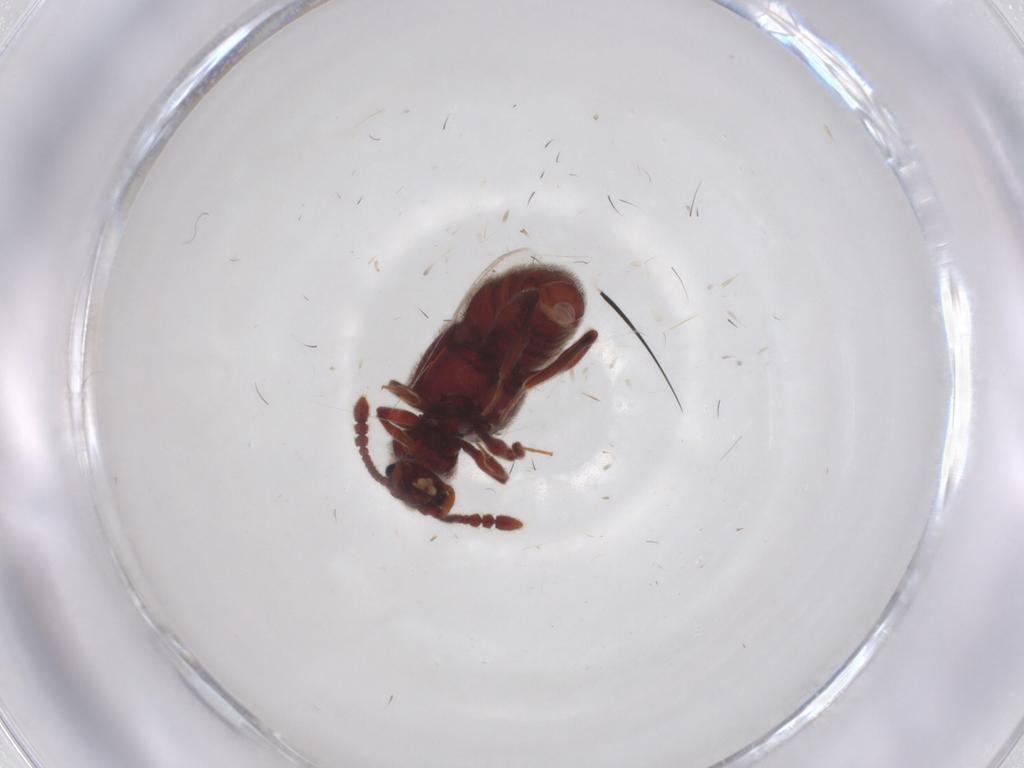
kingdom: Animalia
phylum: Arthropoda
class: Insecta
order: Coleoptera
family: Staphylinidae
